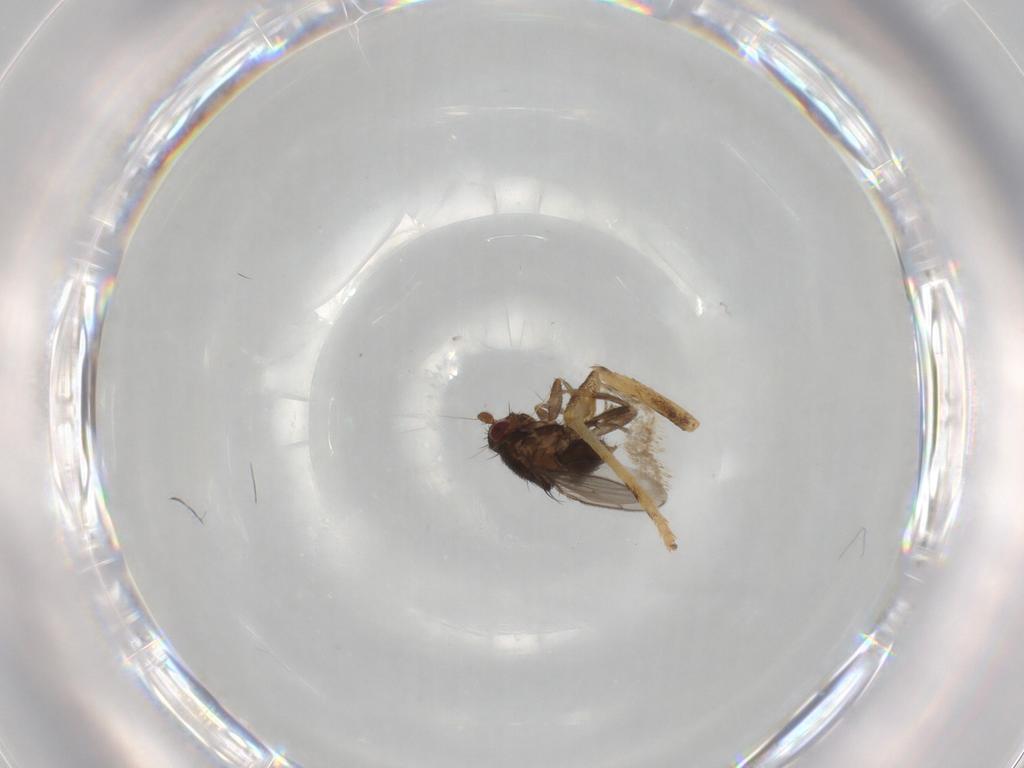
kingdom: Animalia
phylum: Arthropoda
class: Insecta
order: Diptera
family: Sphaeroceridae
